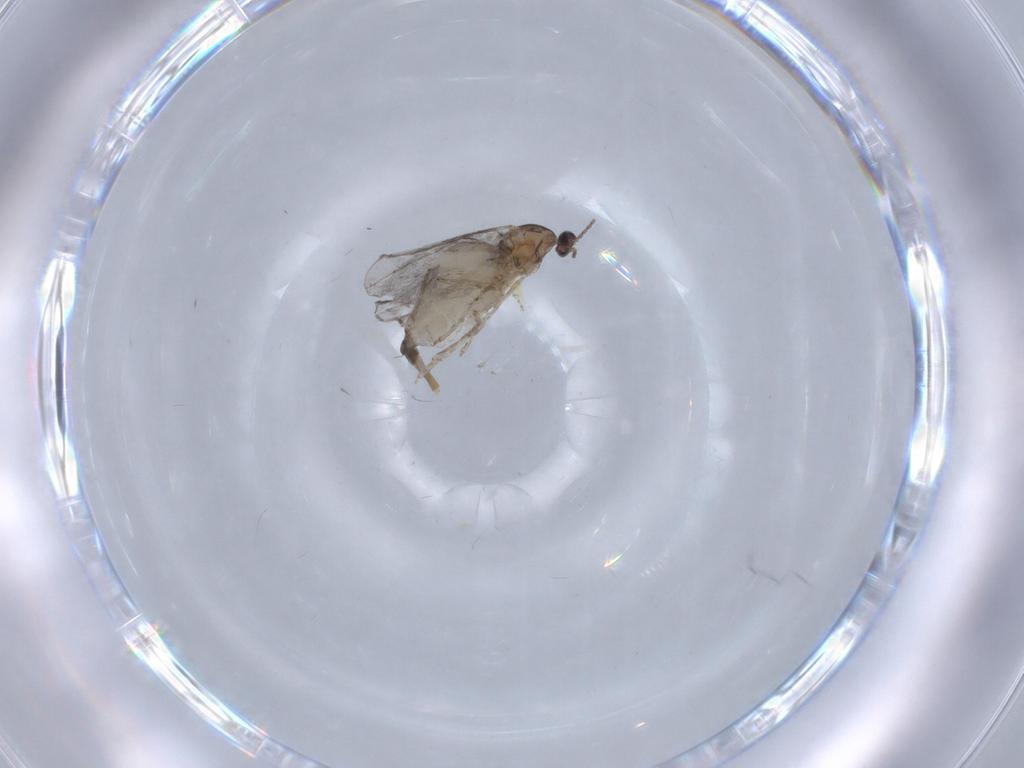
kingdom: Animalia
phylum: Arthropoda
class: Insecta
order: Diptera
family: Cecidomyiidae
